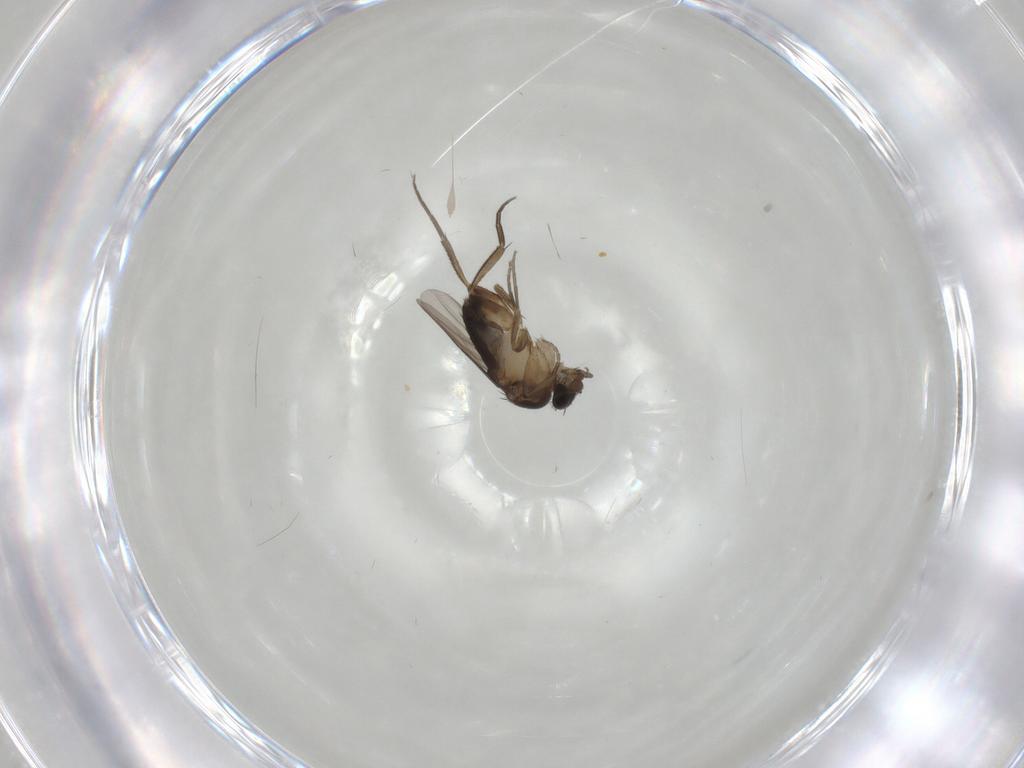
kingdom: Animalia
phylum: Arthropoda
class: Insecta
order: Diptera
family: Phoridae
